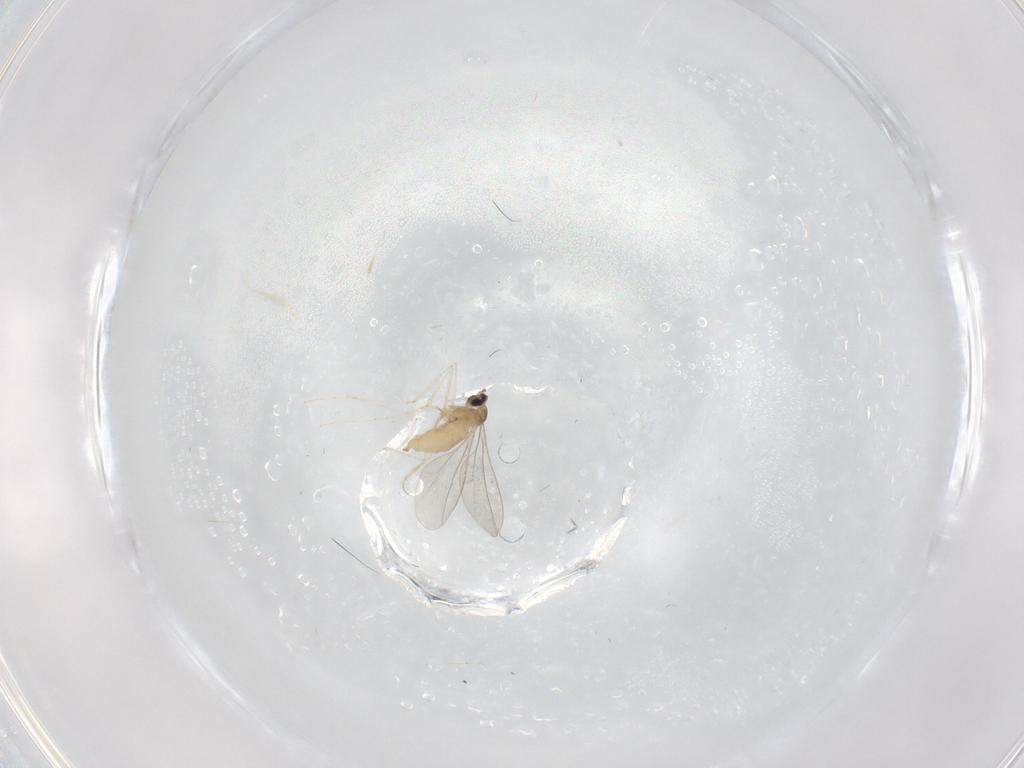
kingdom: Animalia
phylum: Arthropoda
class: Insecta
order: Diptera
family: Cecidomyiidae
